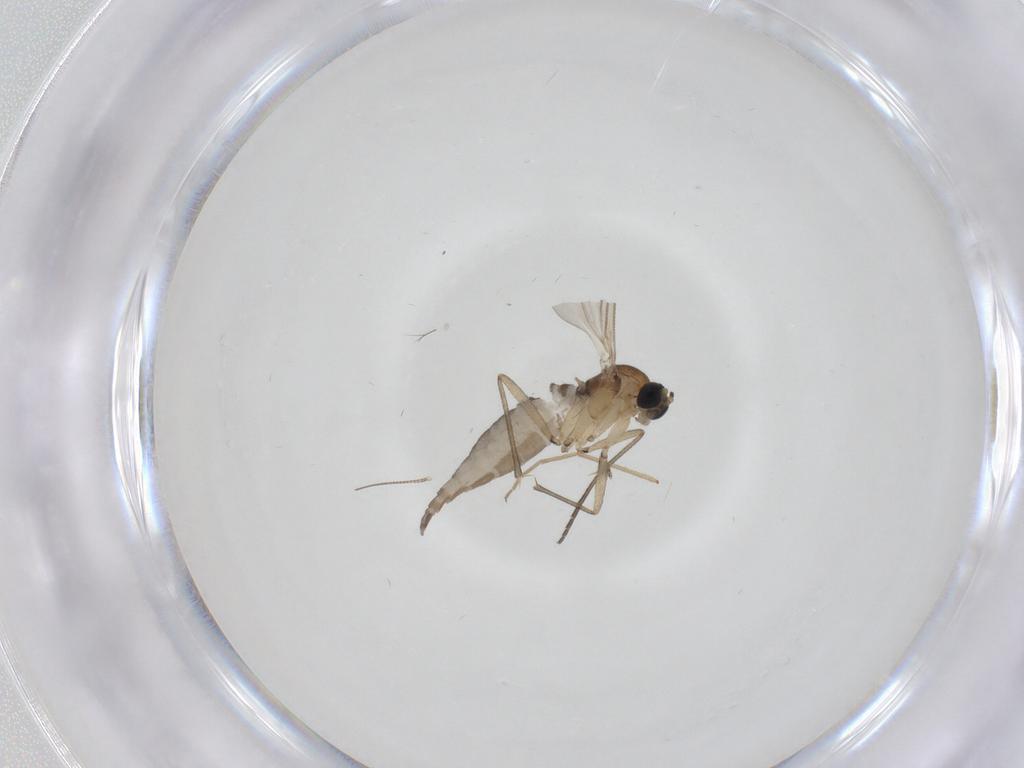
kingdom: Animalia
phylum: Arthropoda
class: Insecta
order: Diptera
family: Sciaridae
